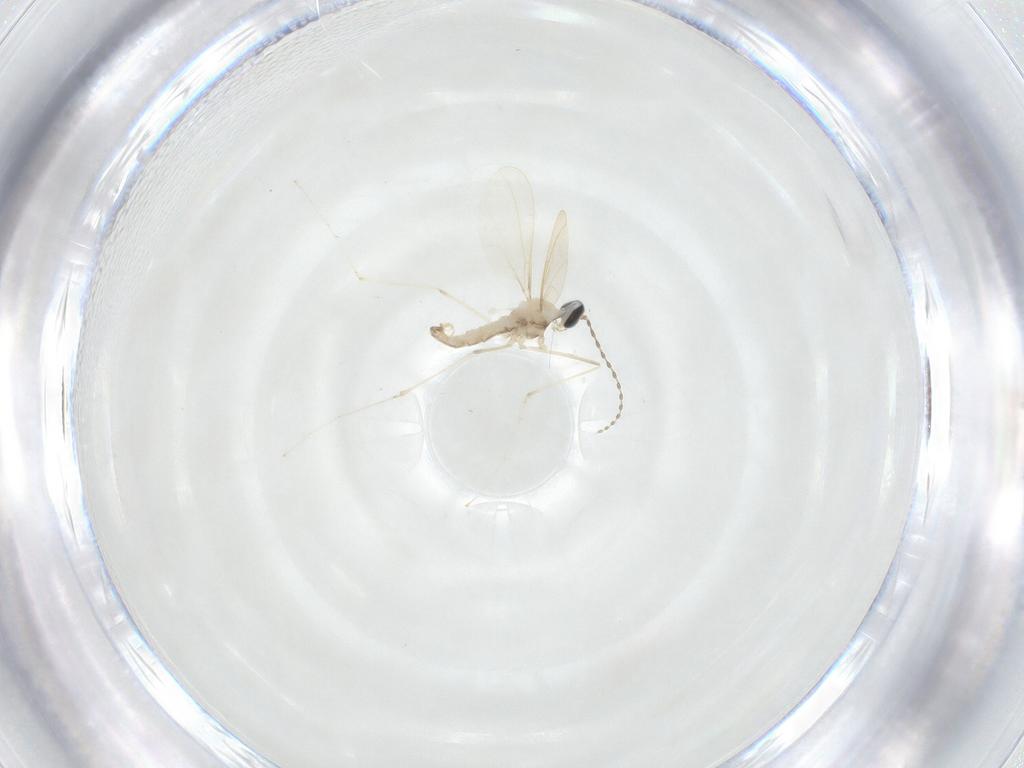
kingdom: Animalia
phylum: Arthropoda
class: Insecta
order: Diptera
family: Cecidomyiidae
